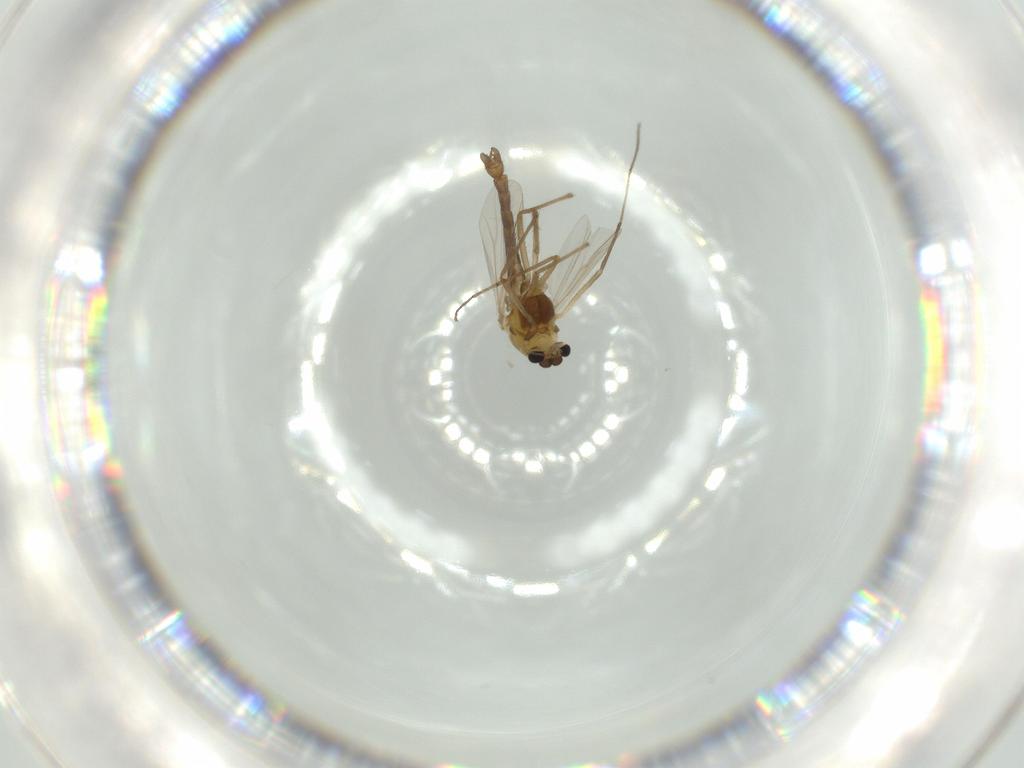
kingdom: Animalia
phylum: Arthropoda
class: Insecta
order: Diptera
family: Chironomidae
